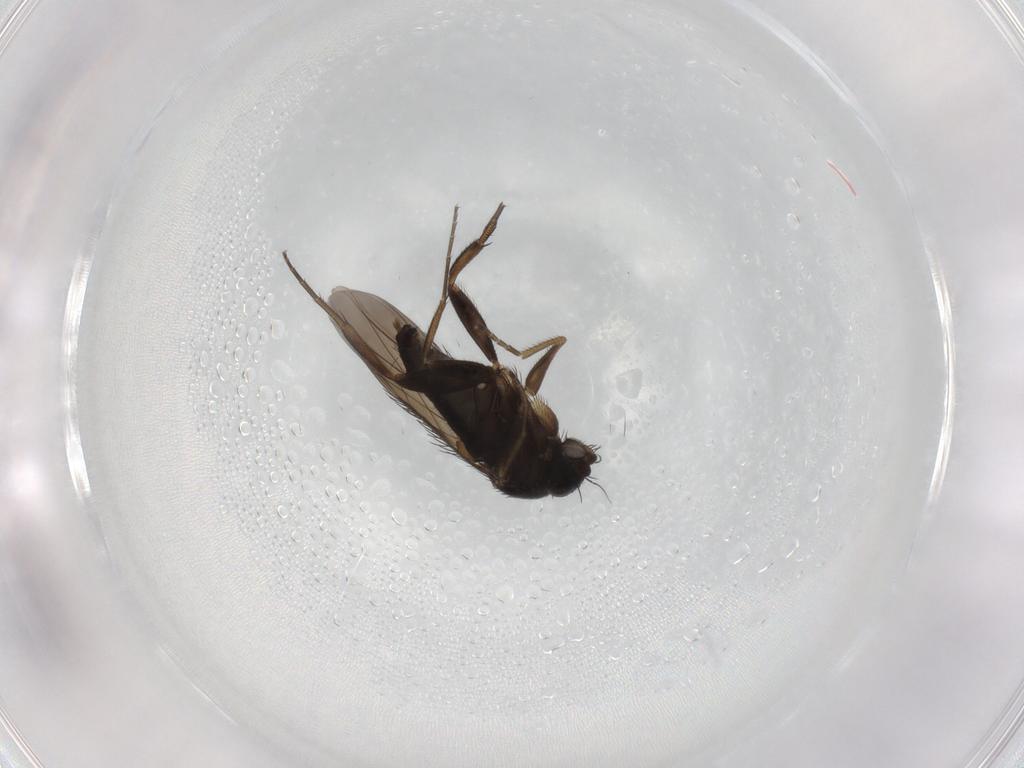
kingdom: Animalia
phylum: Arthropoda
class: Insecta
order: Diptera
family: Phoridae
